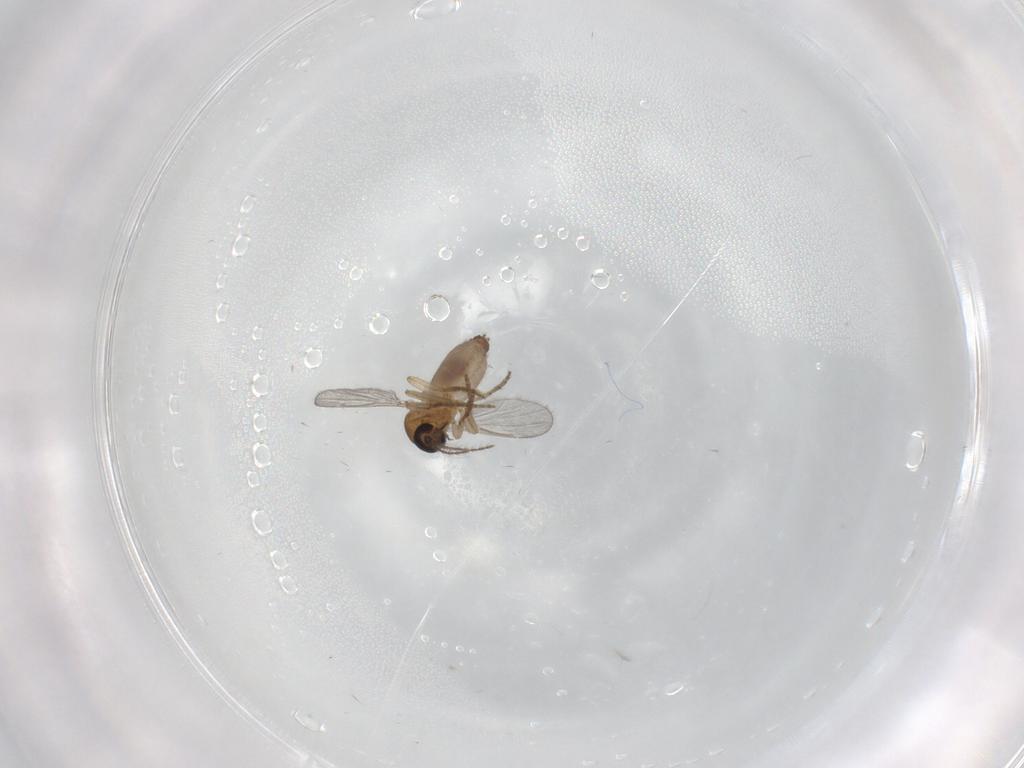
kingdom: Animalia
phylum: Arthropoda
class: Insecta
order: Diptera
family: Ceratopogonidae
